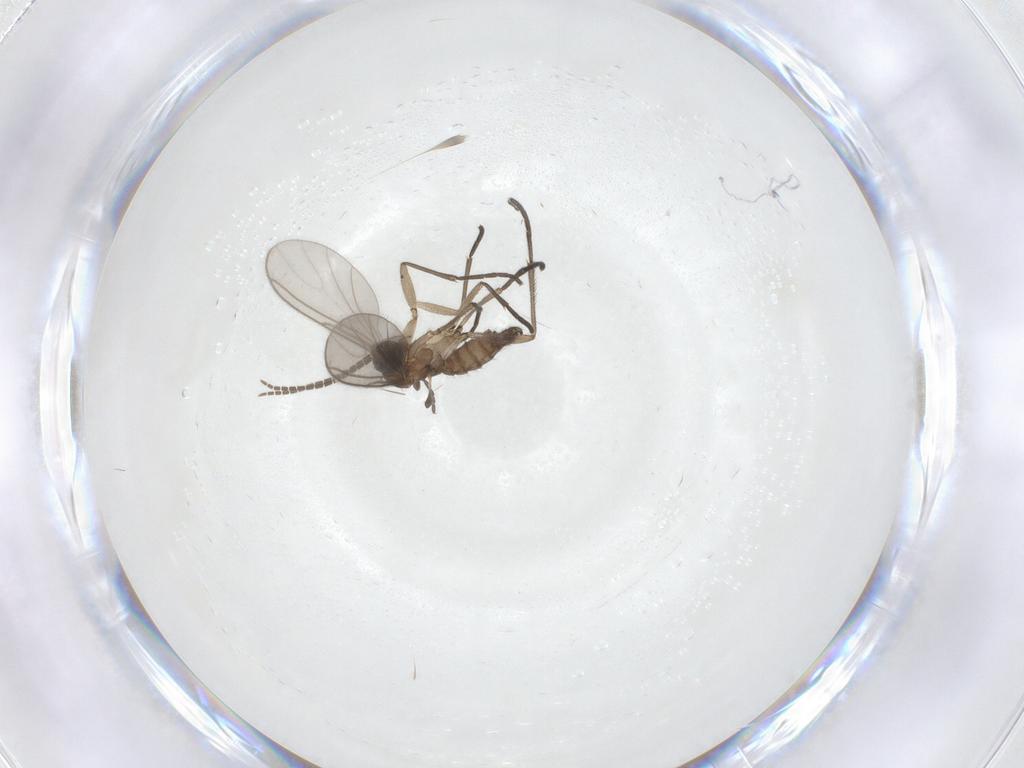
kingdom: Animalia
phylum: Arthropoda
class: Insecta
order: Diptera
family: Sciaridae
